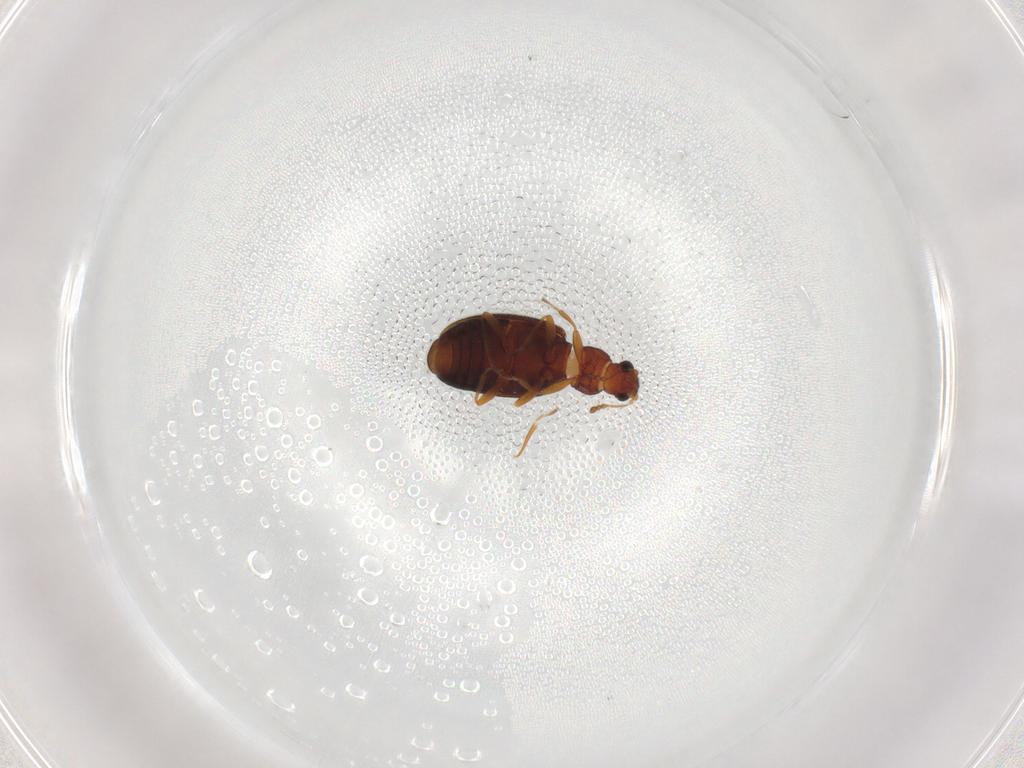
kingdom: Animalia
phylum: Arthropoda
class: Insecta
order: Coleoptera
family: Latridiidae
